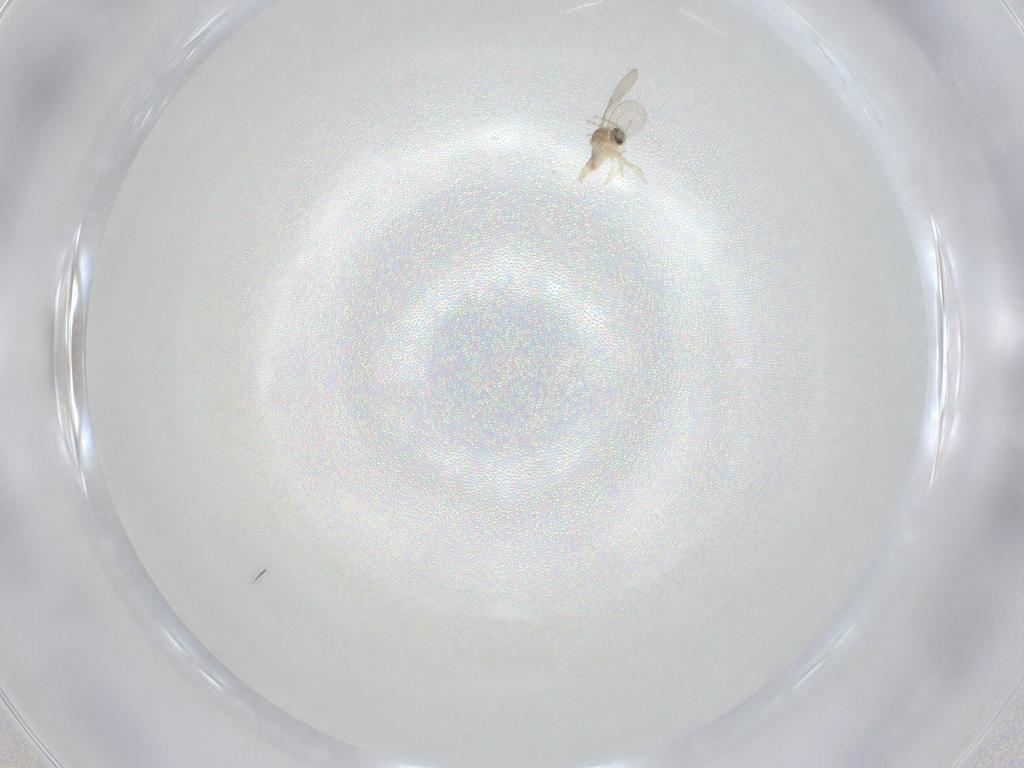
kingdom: Animalia
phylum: Arthropoda
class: Insecta
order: Diptera
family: Cecidomyiidae
